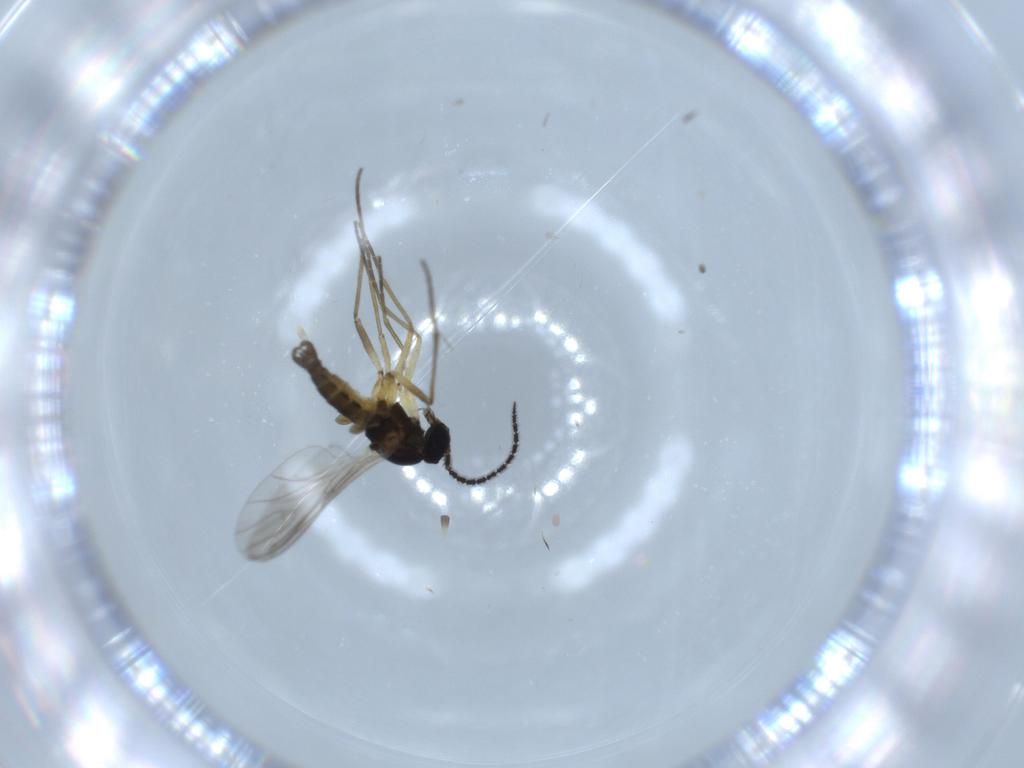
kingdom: Animalia
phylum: Arthropoda
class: Insecta
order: Diptera
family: Sciaridae
